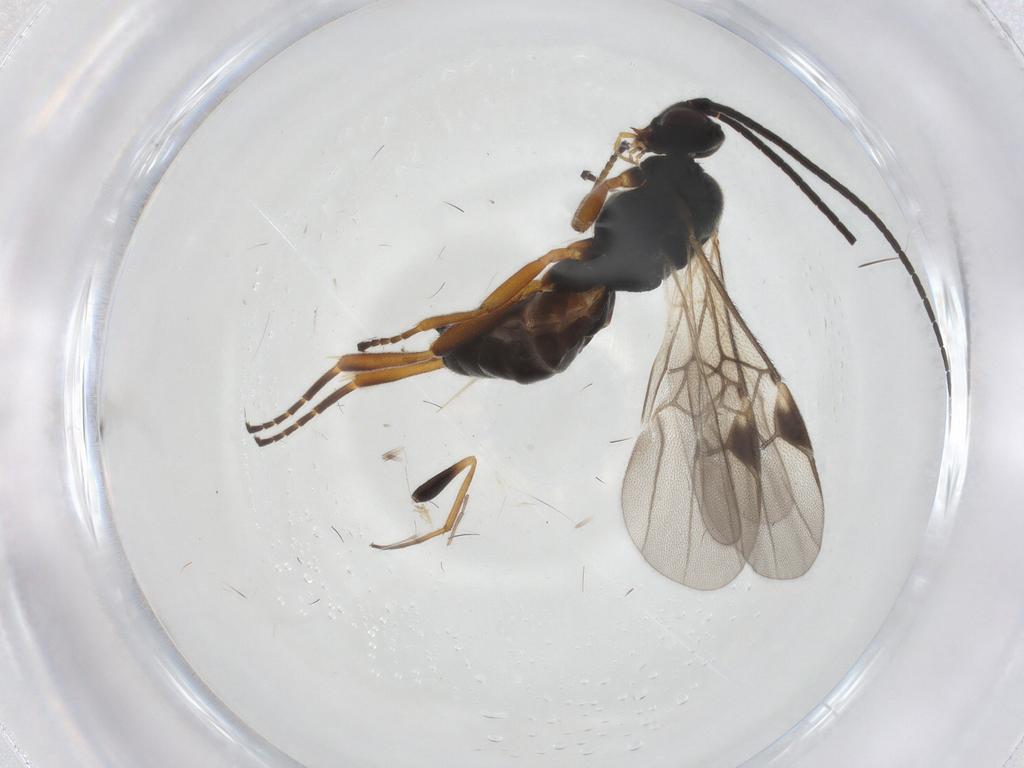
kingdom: Animalia
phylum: Arthropoda
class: Insecta
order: Hymenoptera
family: Braconidae
